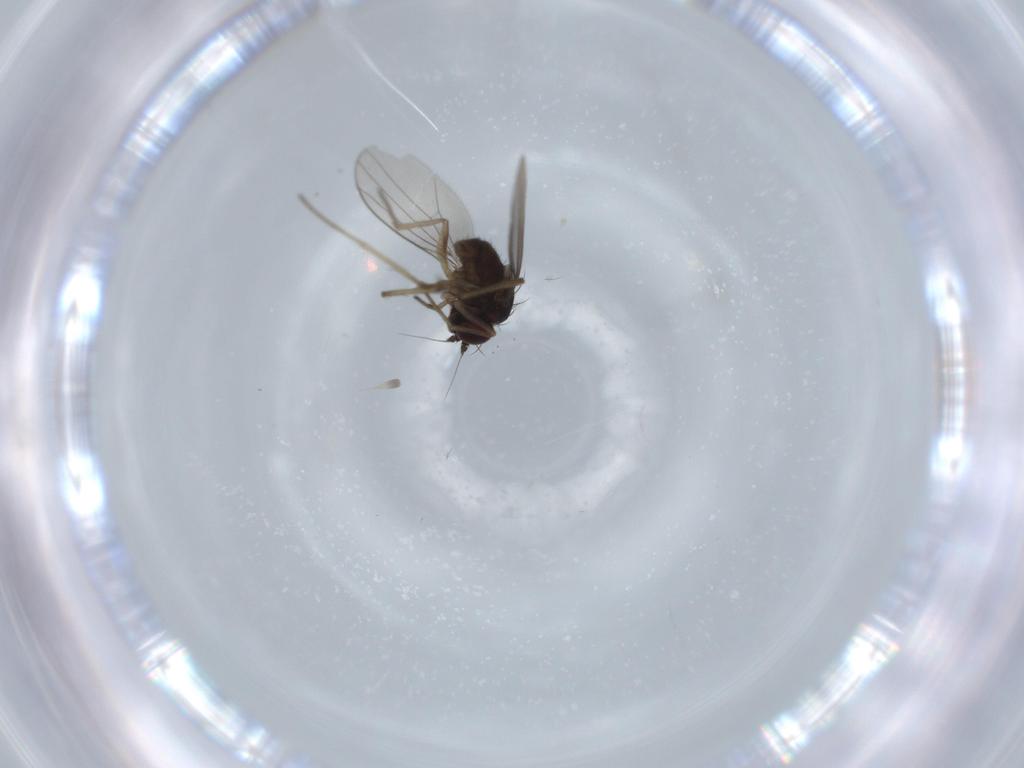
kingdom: Animalia
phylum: Arthropoda
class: Insecta
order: Diptera
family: Dolichopodidae
